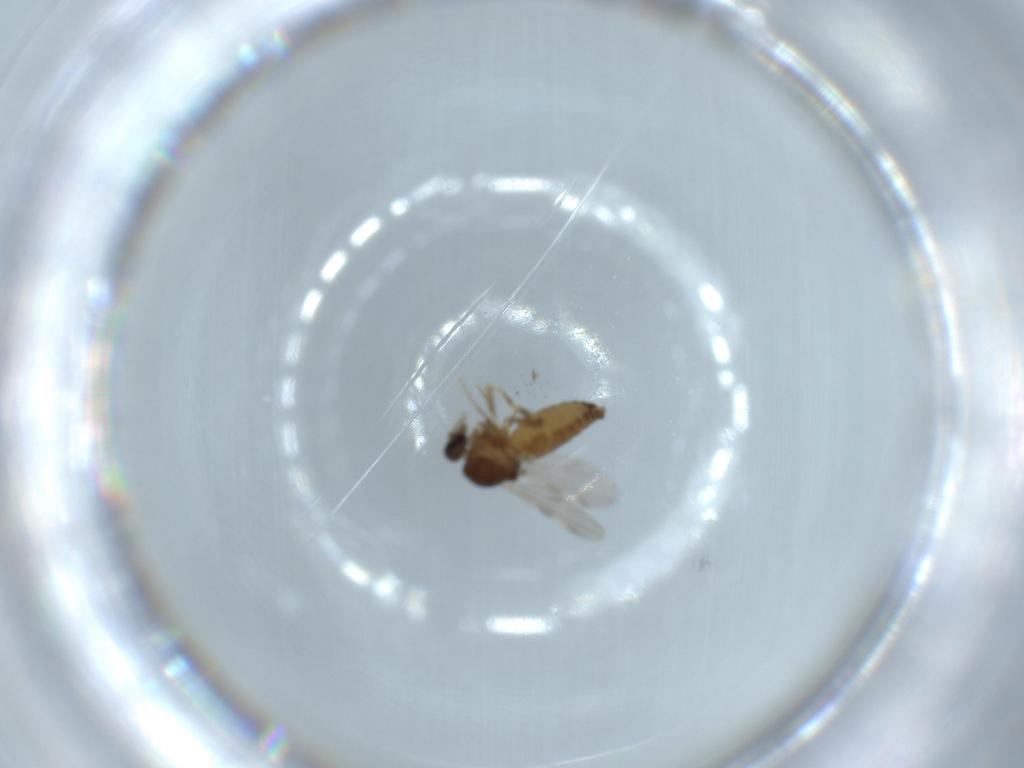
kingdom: Animalia
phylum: Arthropoda
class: Insecta
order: Diptera
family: Ceratopogonidae
